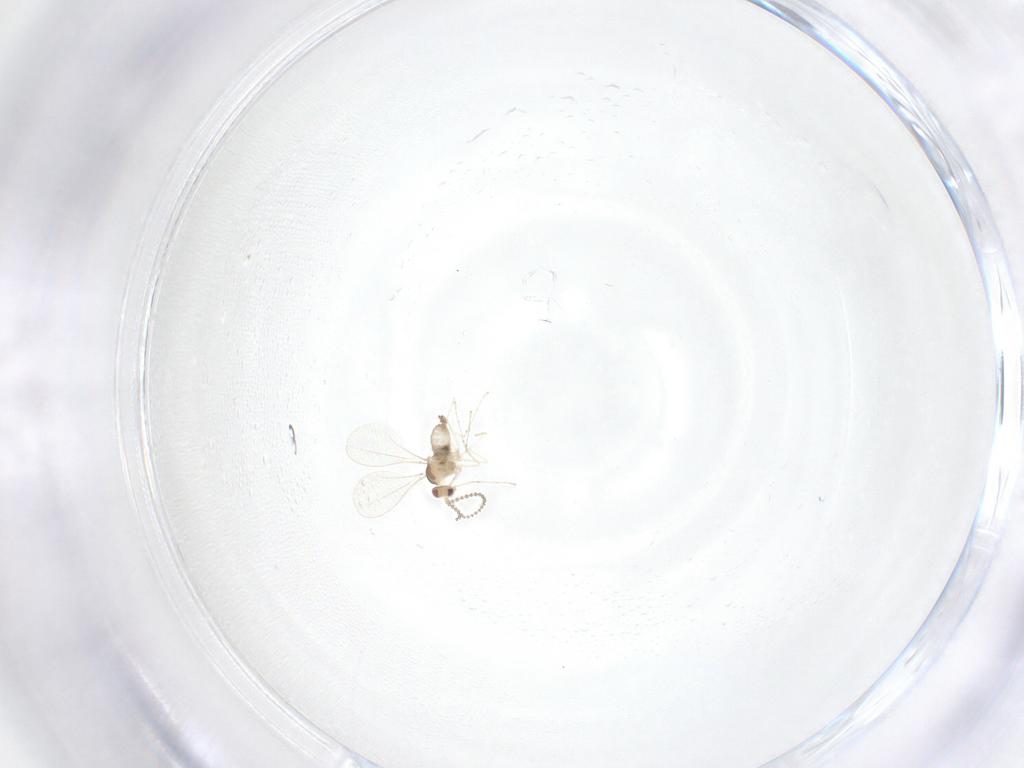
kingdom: Animalia
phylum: Arthropoda
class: Insecta
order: Diptera
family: Cecidomyiidae
